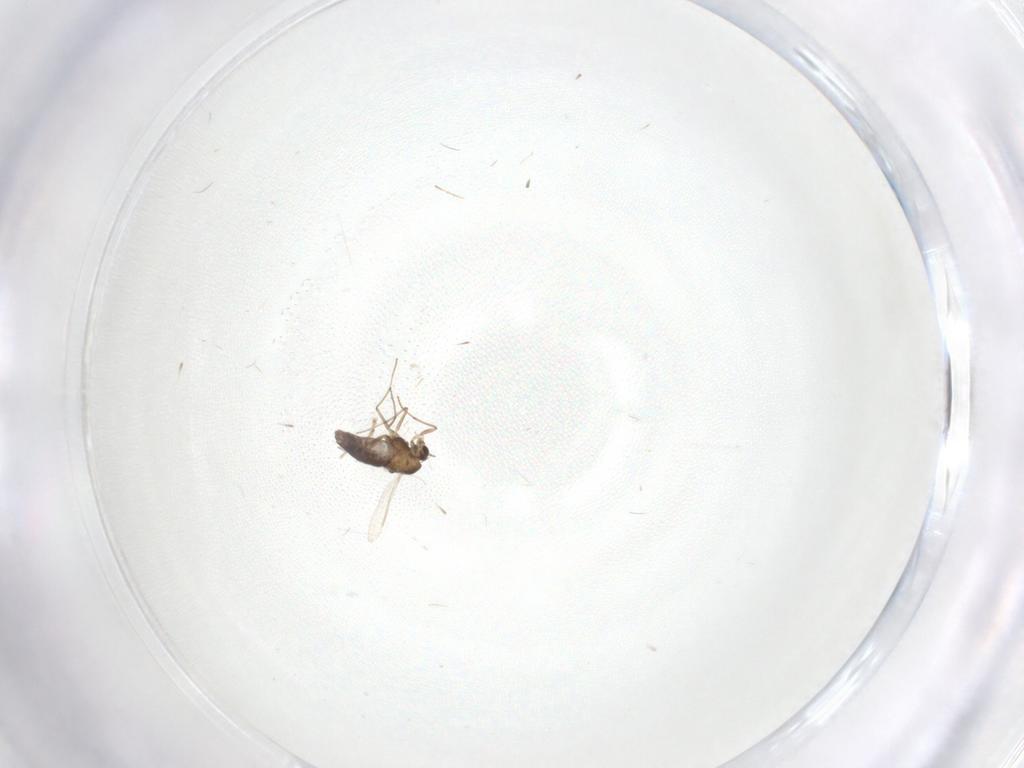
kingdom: Animalia
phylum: Arthropoda
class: Insecta
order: Diptera
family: Chironomidae
